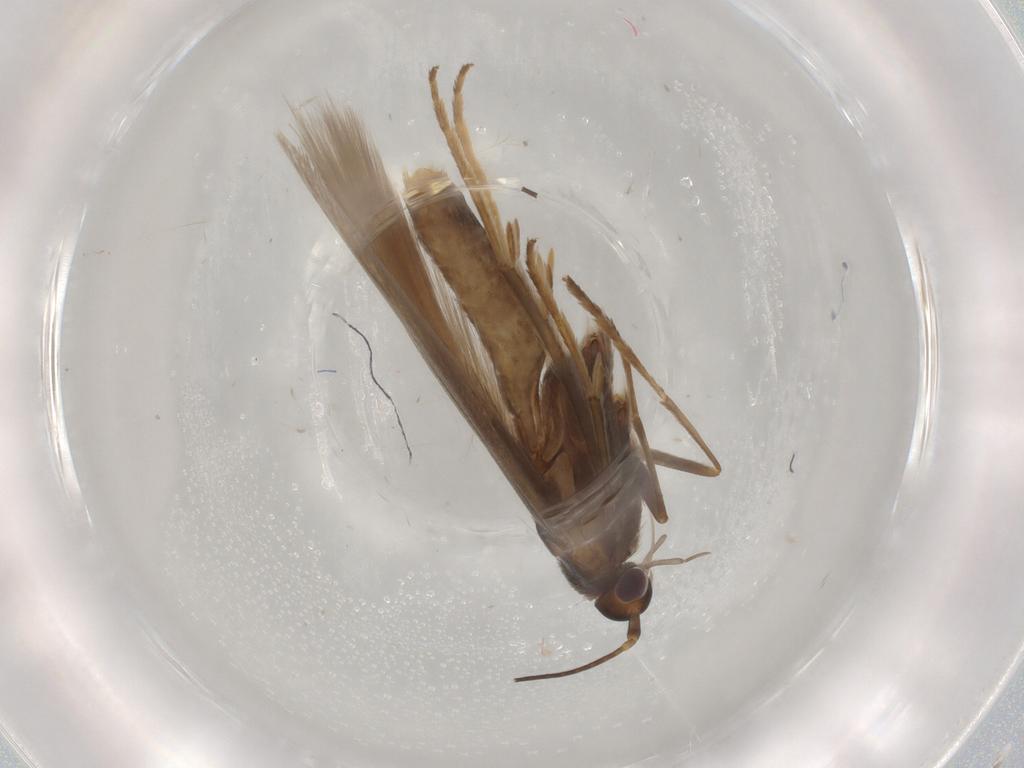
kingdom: Animalia
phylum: Arthropoda
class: Insecta
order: Lepidoptera
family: Coleophoridae
